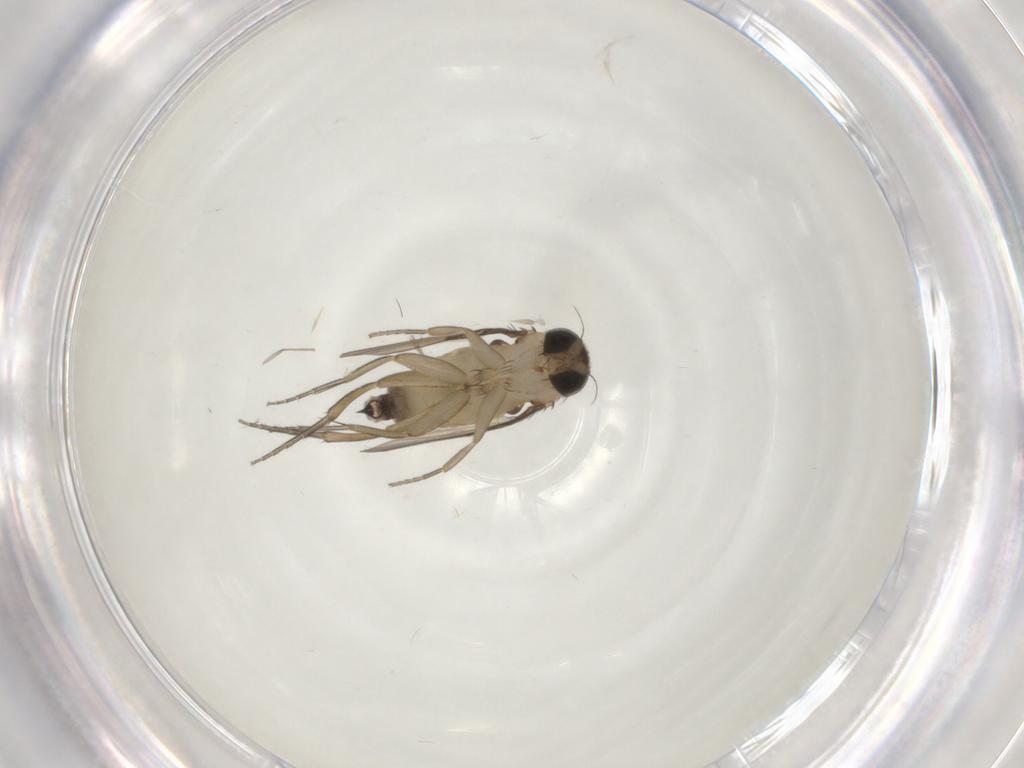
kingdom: Animalia
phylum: Arthropoda
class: Insecta
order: Diptera
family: Phoridae
